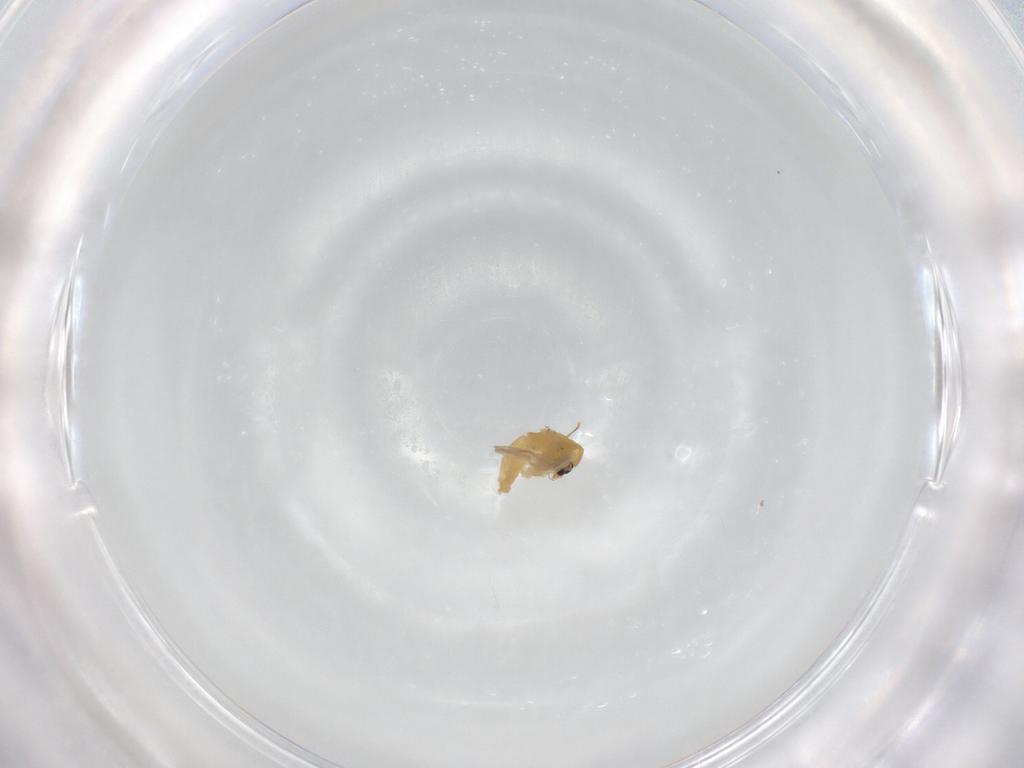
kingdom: Animalia
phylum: Arthropoda
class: Insecta
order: Diptera
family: Chironomidae
